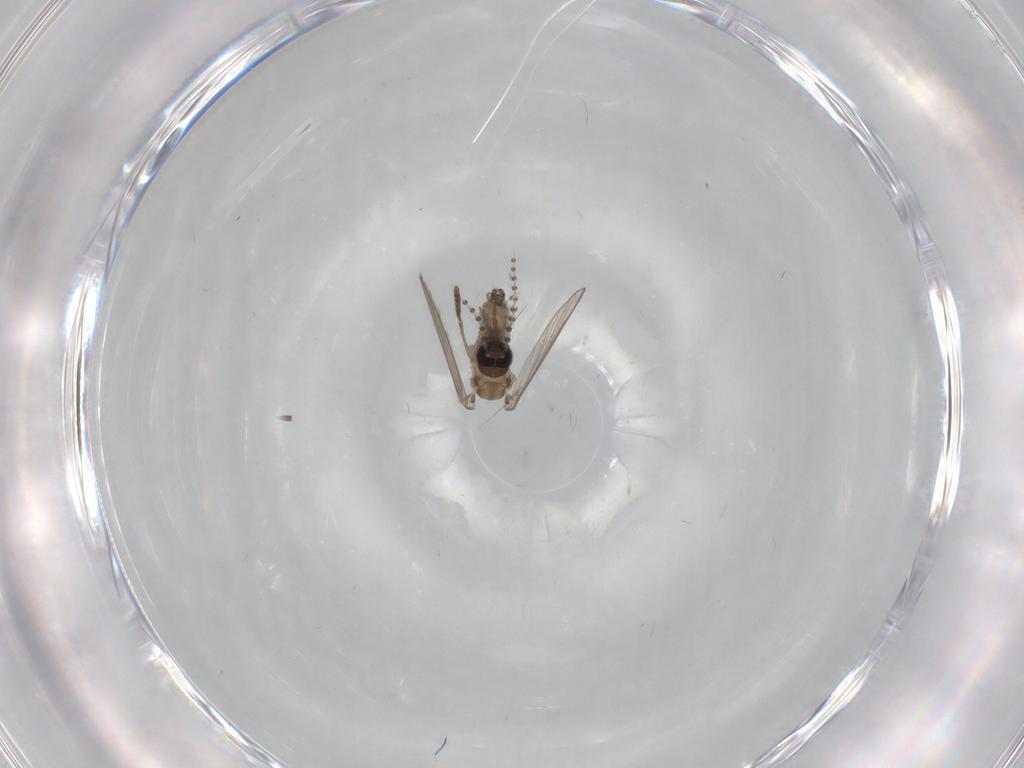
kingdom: Animalia
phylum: Arthropoda
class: Insecta
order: Diptera
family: Psychodidae
